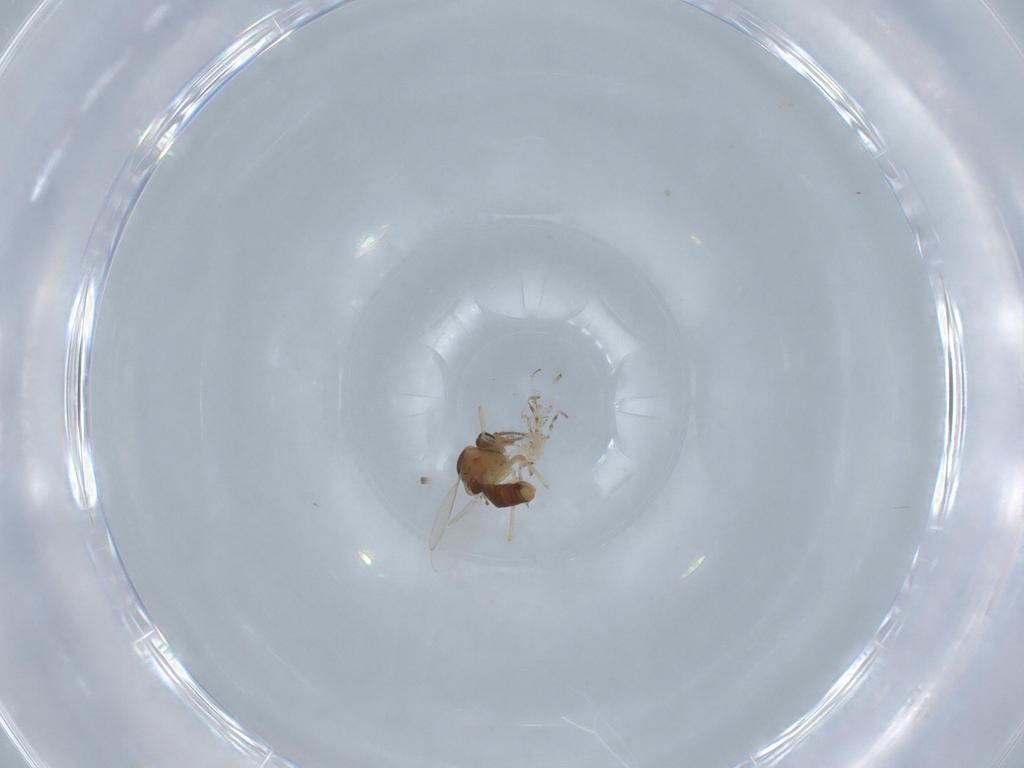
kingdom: Animalia
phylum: Arthropoda
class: Insecta
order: Diptera
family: Ceratopogonidae
